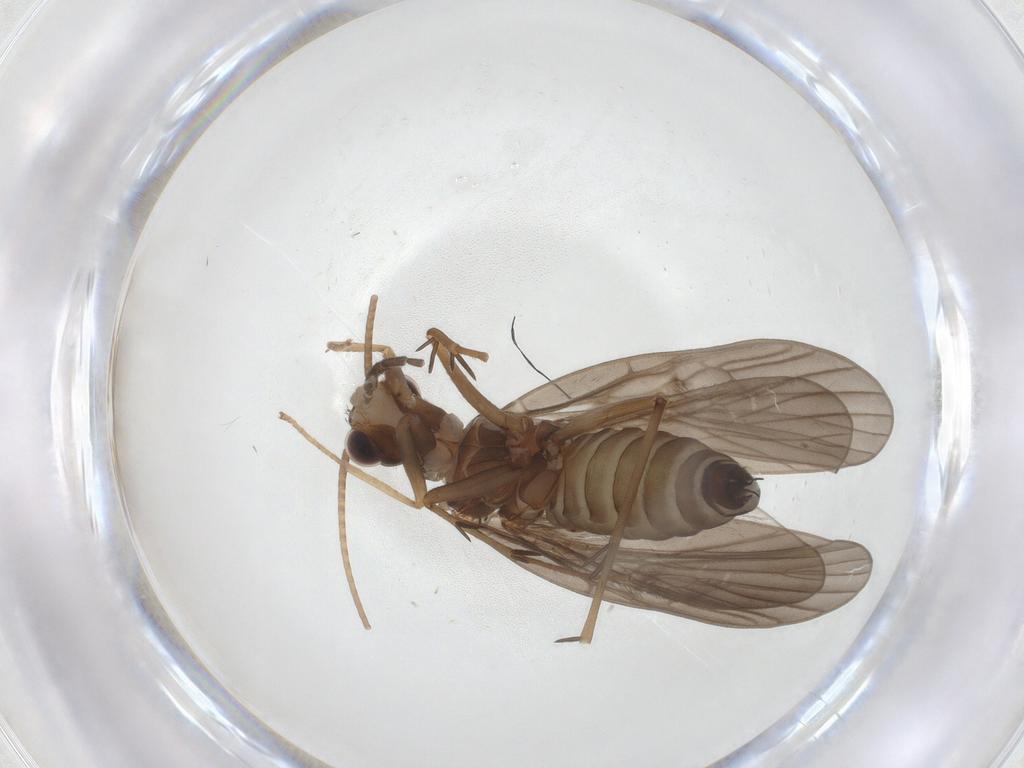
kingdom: Animalia
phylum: Arthropoda
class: Insecta
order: Trichoptera
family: Philopotamidae
